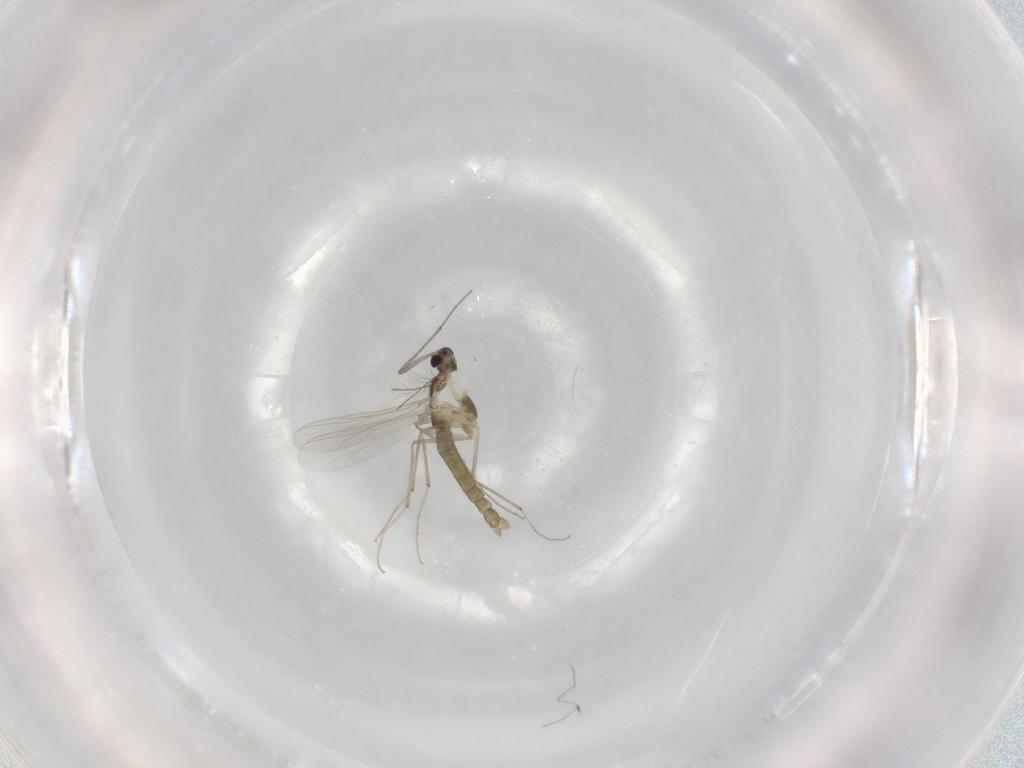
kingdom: Animalia
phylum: Arthropoda
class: Insecta
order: Diptera
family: Chironomidae
